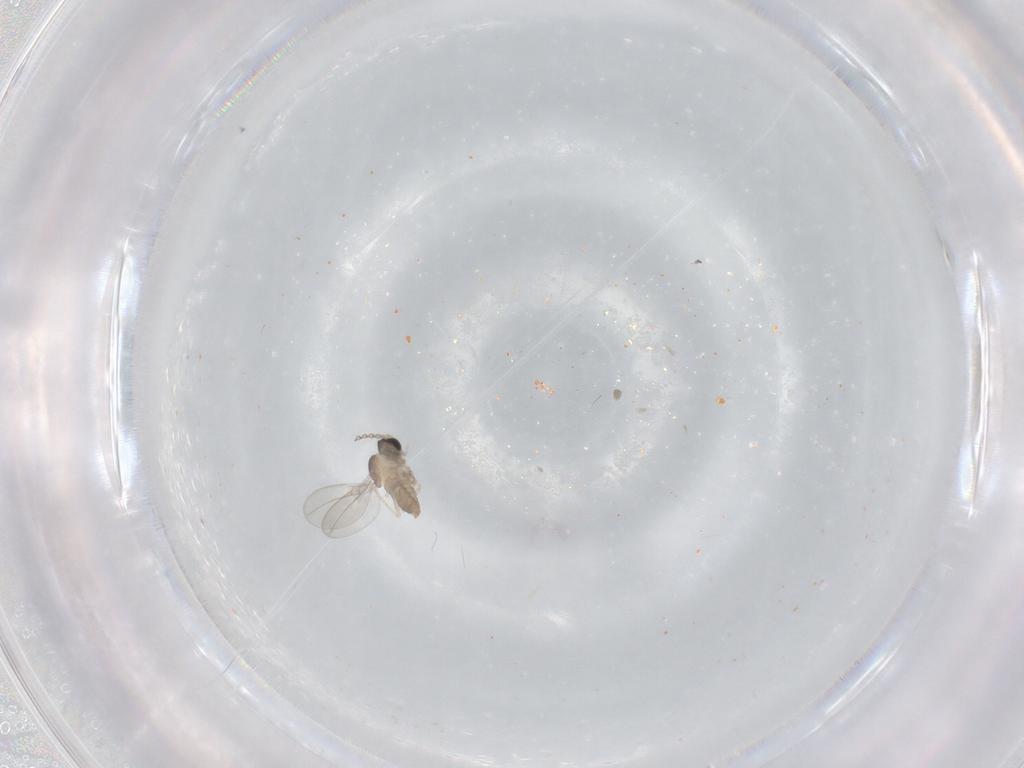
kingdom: Animalia
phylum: Arthropoda
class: Insecta
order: Diptera
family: Cecidomyiidae
